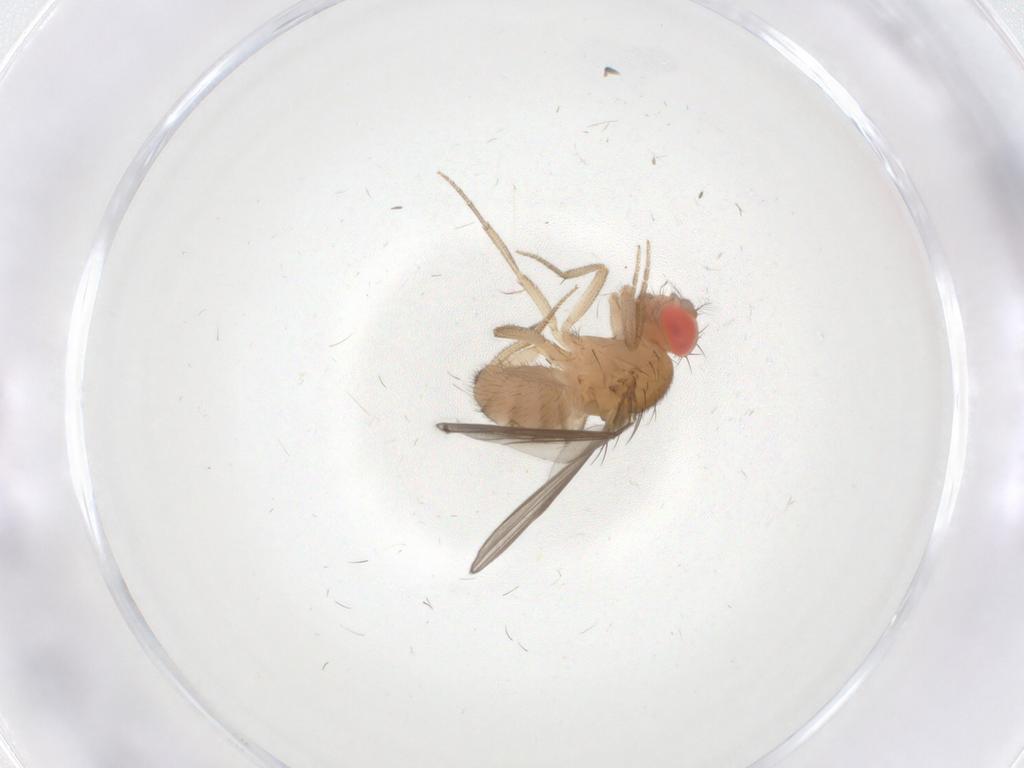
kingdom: Animalia
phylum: Arthropoda
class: Insecta
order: Diptera
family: Drosophilidae
